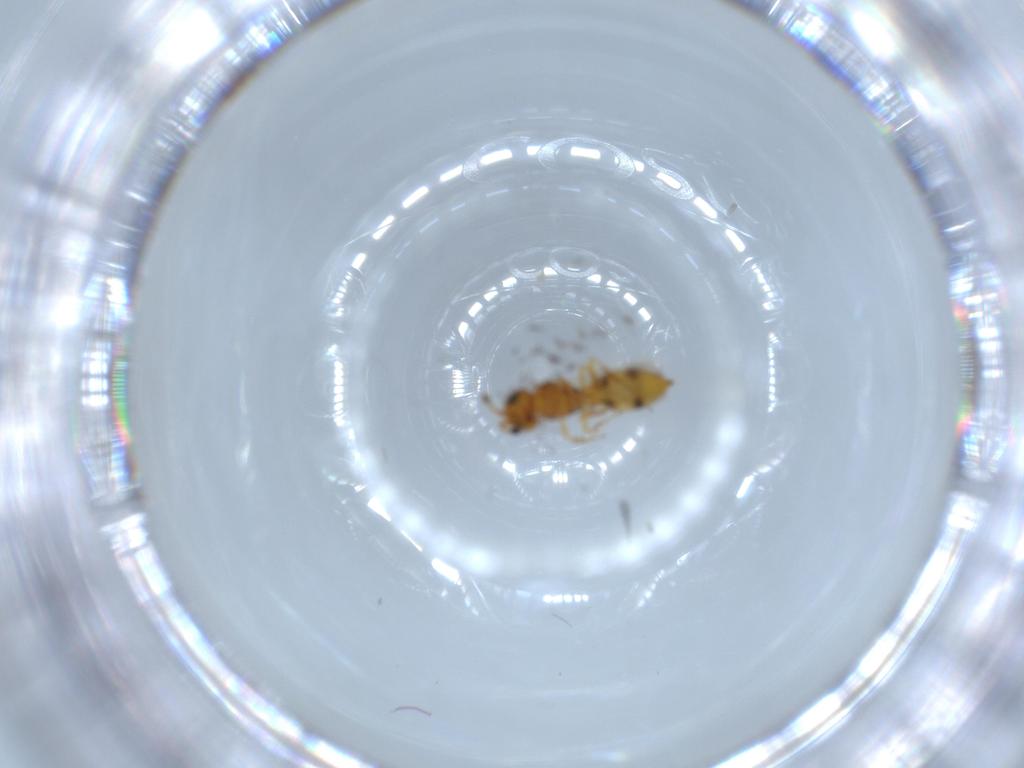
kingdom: Animalia
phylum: Arthropoda
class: Insecta
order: Hymenoptera
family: Scelionidae
